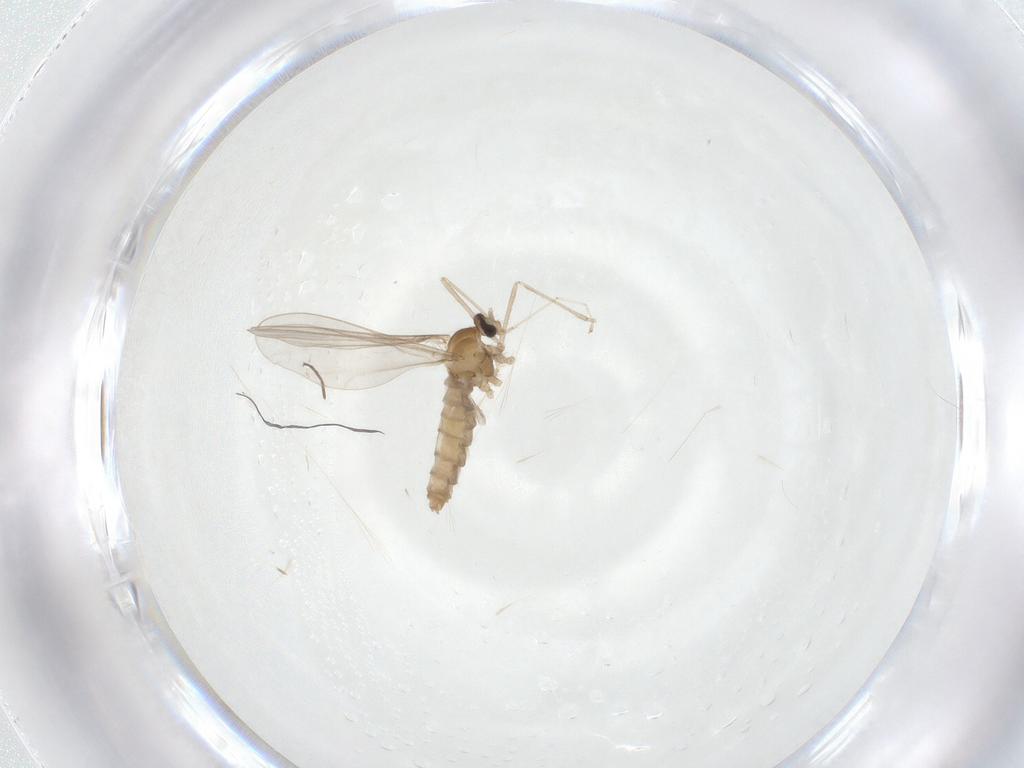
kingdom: Animalia
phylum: Arthropoda
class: Insecta
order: Diptera
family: Cecidomyiidae
